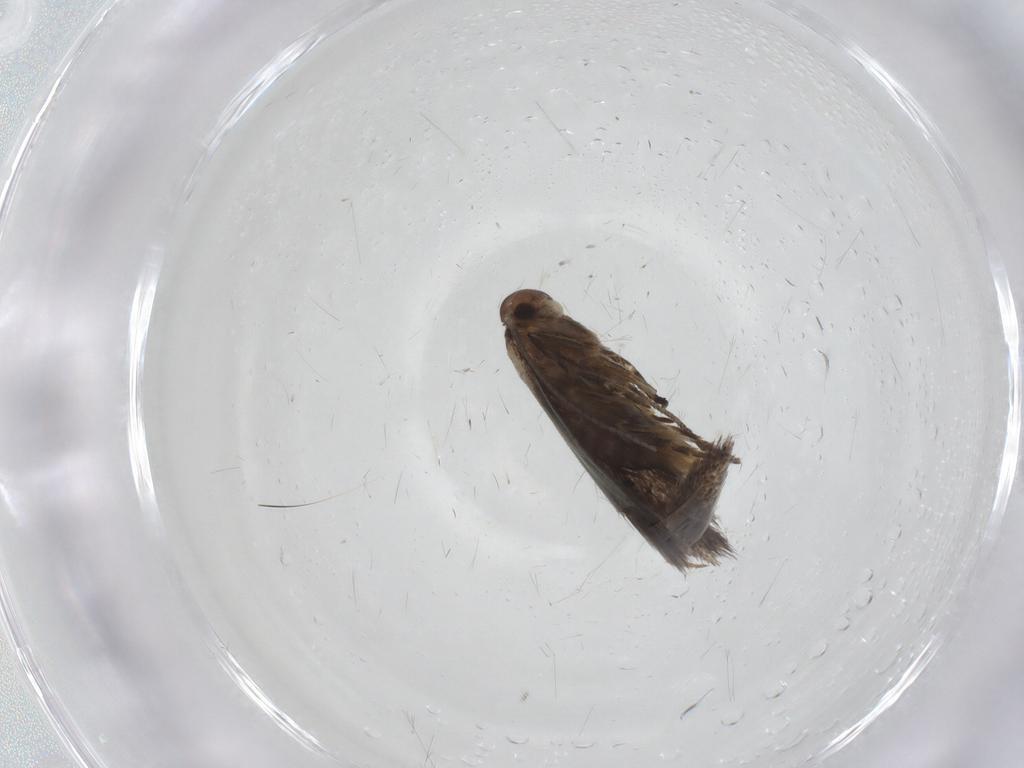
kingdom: Animalia
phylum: Arthropoda
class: Insecta
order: Lepidoptera
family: Elachistidae
